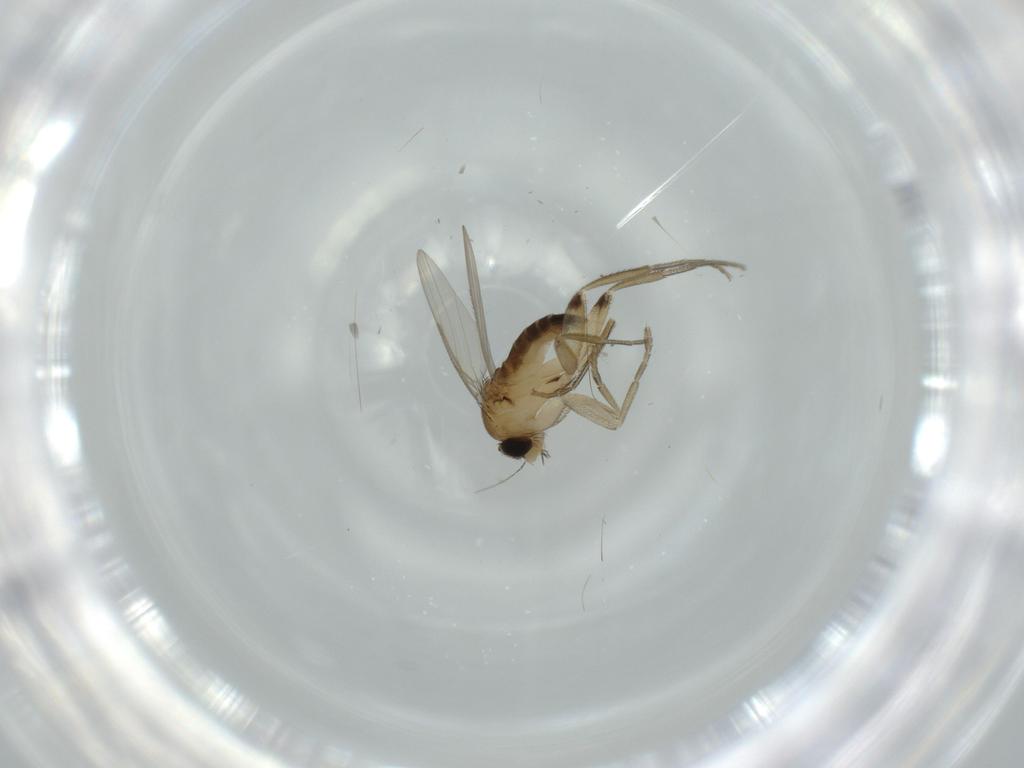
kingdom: Animalia
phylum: Arthropoda
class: Insecta
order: Diptera
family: Phoridae
